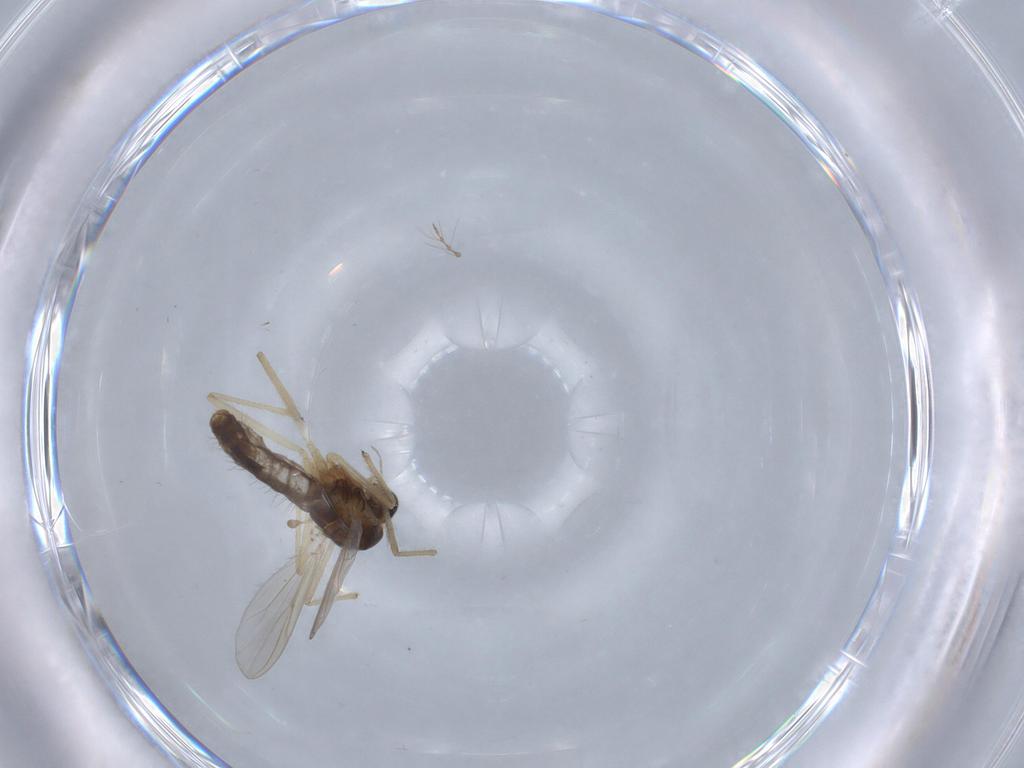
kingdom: Animalia
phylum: Arthropoda
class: Insecta
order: Diptera
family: Chironomidae
